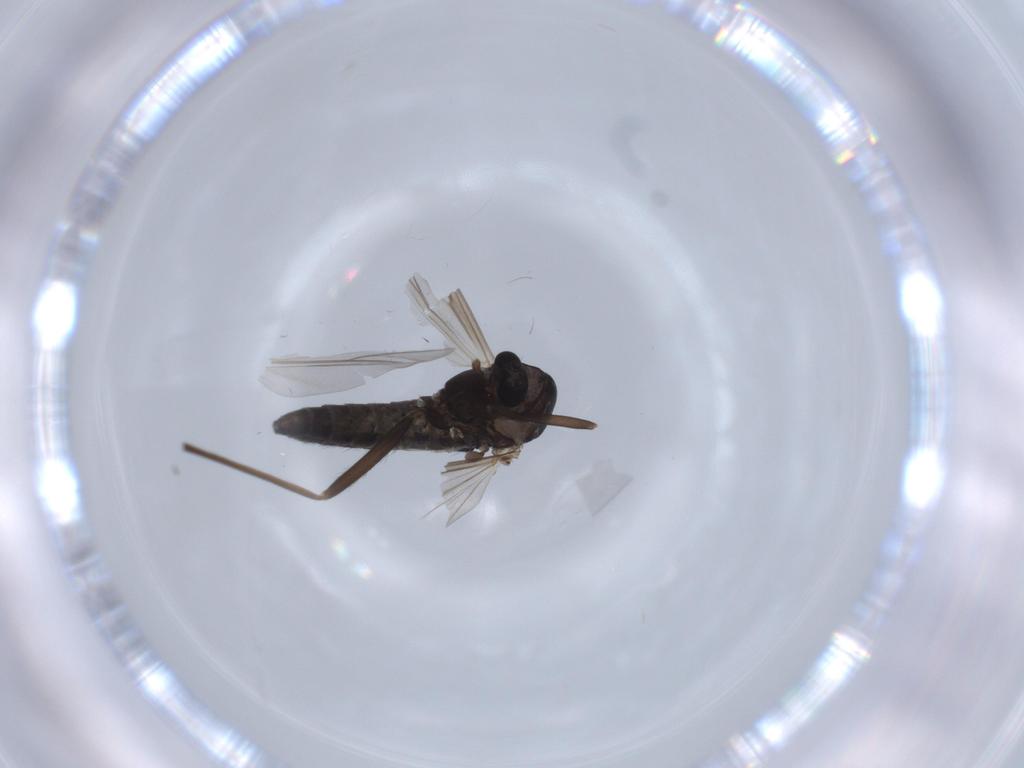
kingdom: Animalia
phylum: Arthropoda
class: Insecta
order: Diptera
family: Chironomidae
